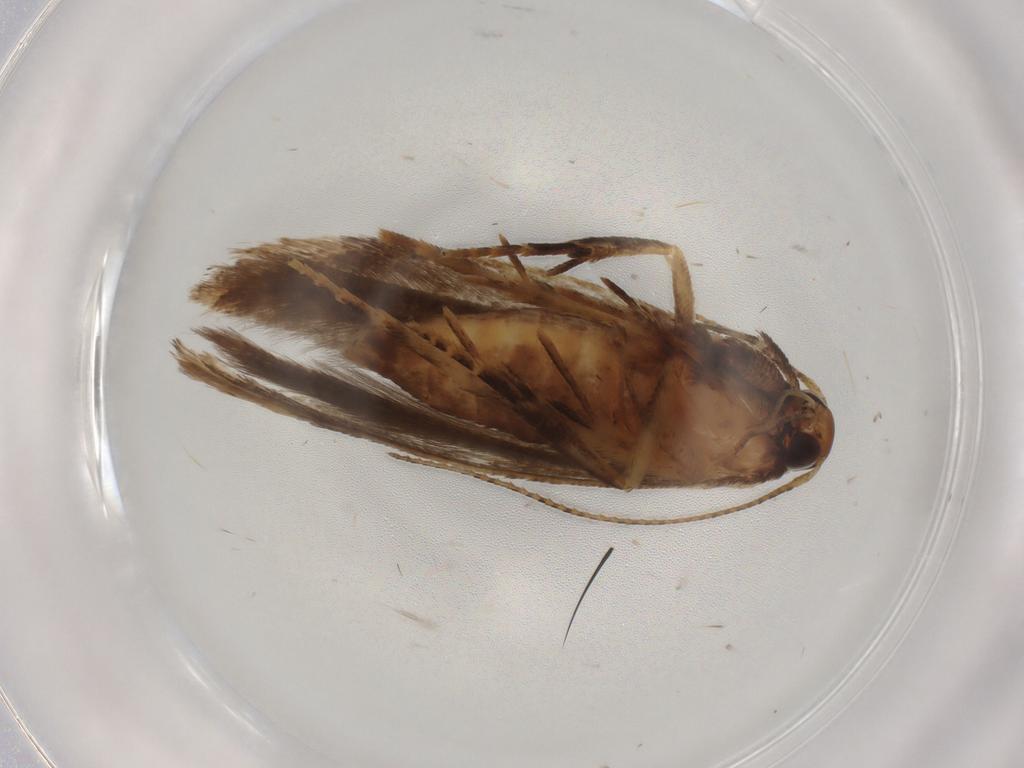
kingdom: Animalia
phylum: Arthropoda
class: Insecta
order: Lepidoptera
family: Gelechiidae
